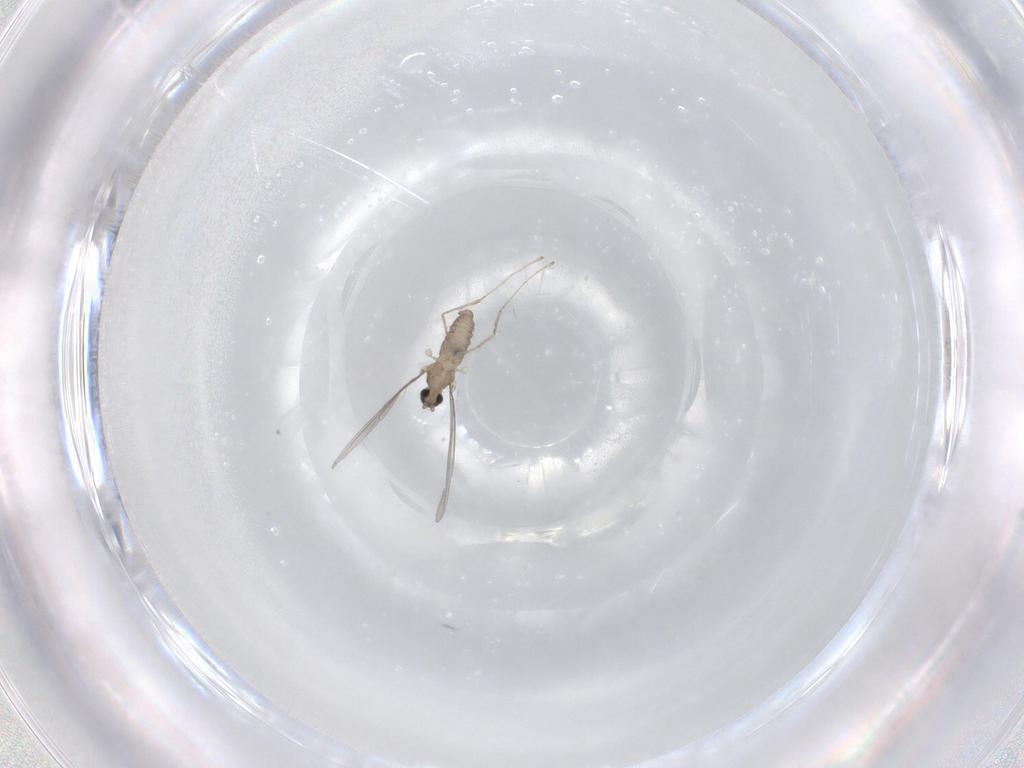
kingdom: Animalia
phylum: Arthropoda
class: Insecta
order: Diptera
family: Cecidomyiidae
